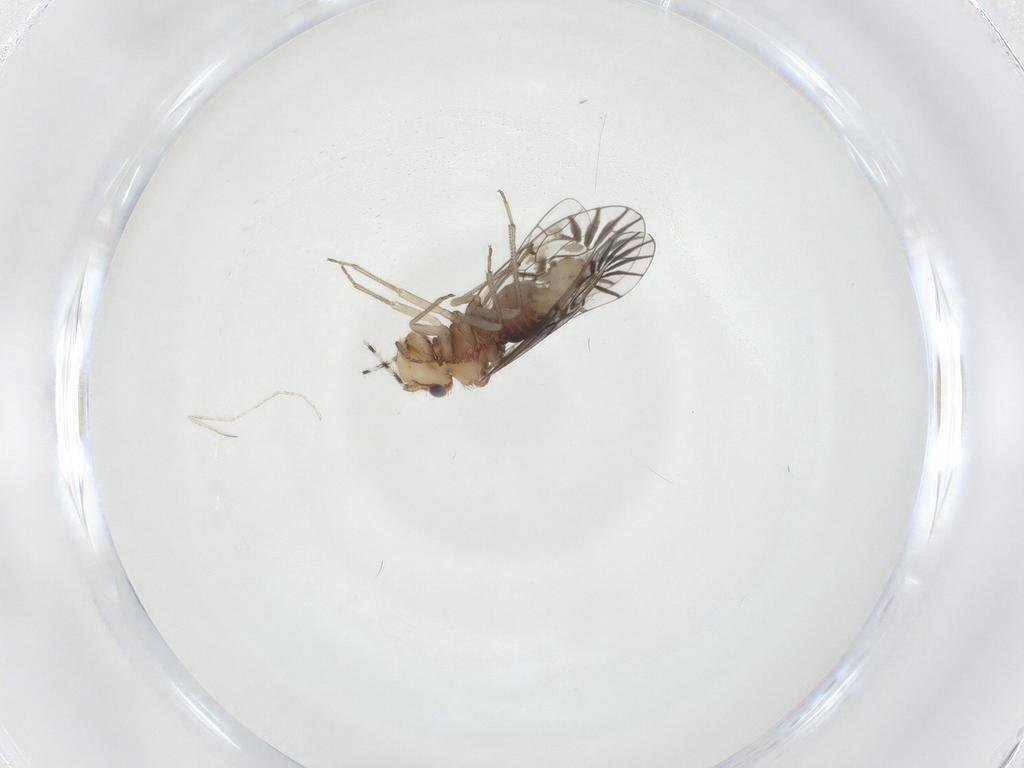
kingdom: Animalia
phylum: Arthropoda
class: Insecta
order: Psocodea
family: Amphipsocidae
